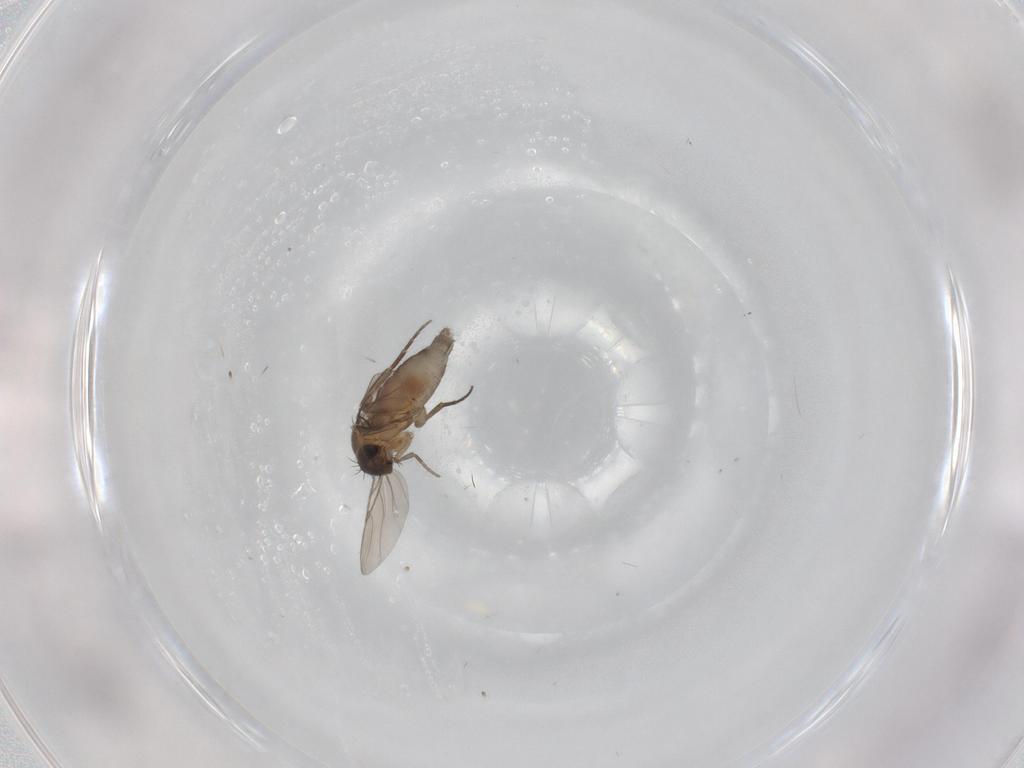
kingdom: Animalia
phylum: Arthropoda
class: Insecta
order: Diptera
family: Phoridae
